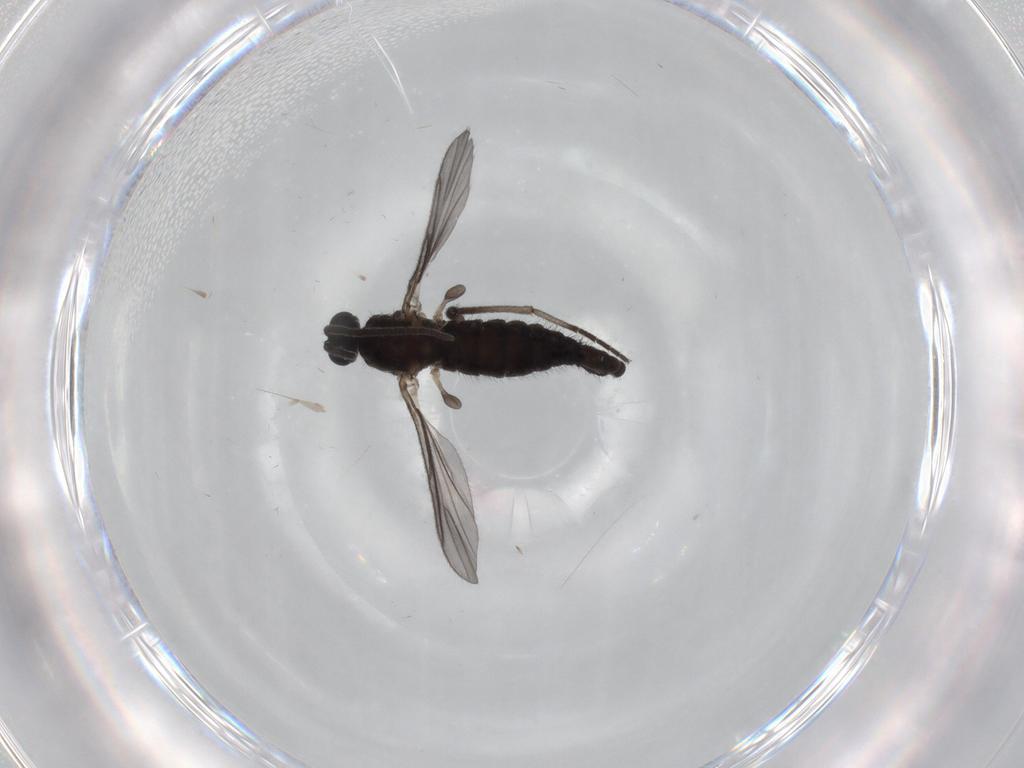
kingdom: Animalia
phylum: Arthropoda
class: Insecta
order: Diptera
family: Sciaridae
